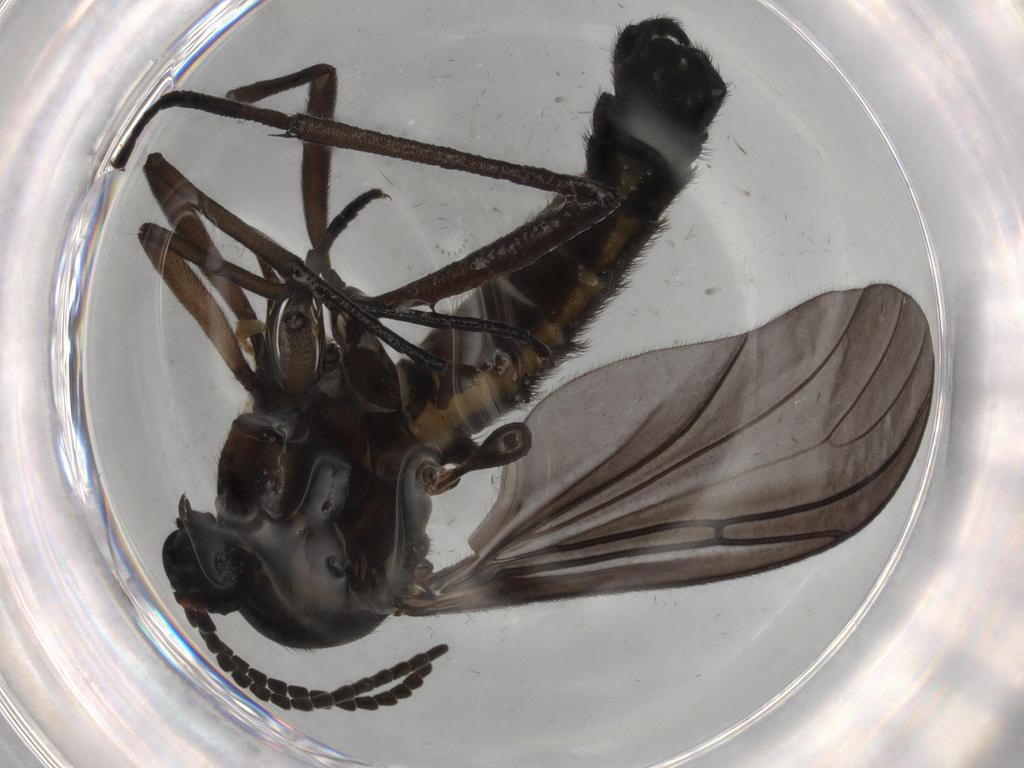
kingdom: Animalia
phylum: Arthropoda
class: Insecta
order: Diptera
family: Sciaridae
